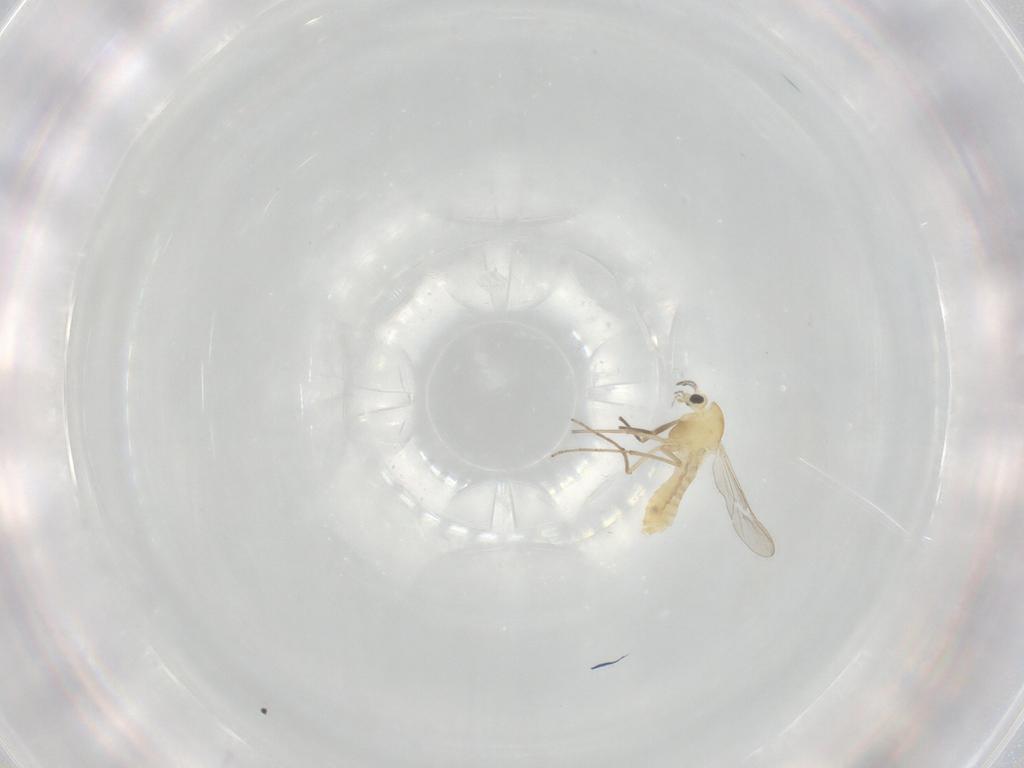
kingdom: Animalia
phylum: Arthropoda
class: Insecta
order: Diptera
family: Chironomidae
